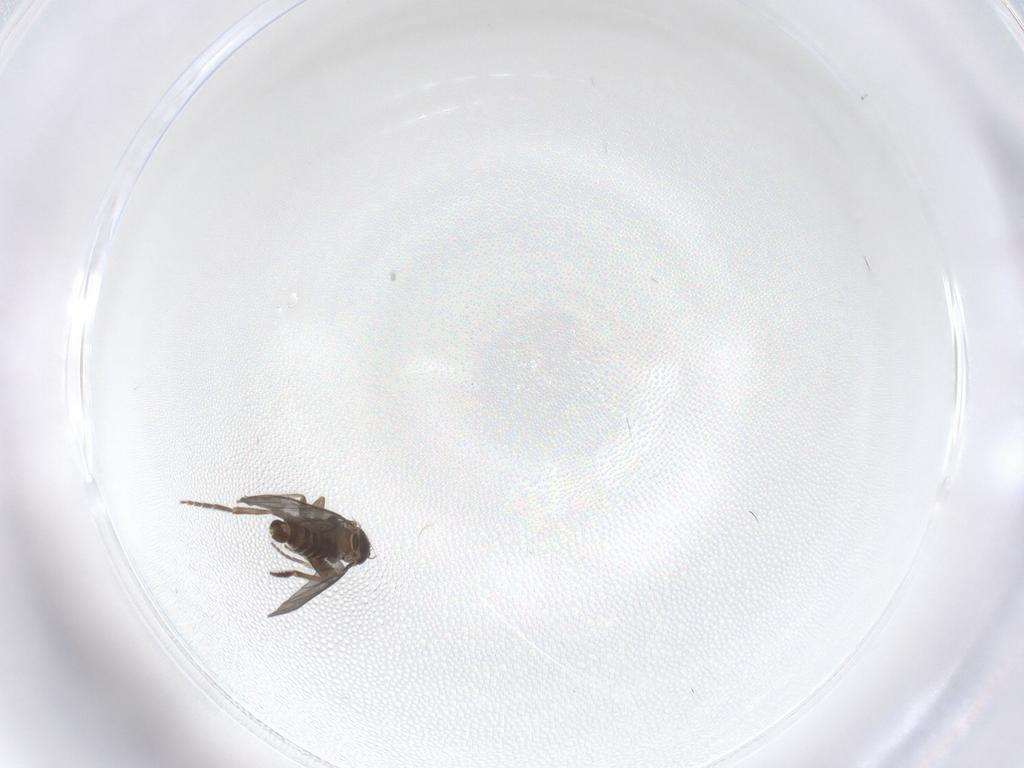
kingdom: Animalia
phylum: Arthropoda
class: Insecta
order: Diptera
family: Cecidomyiidae
